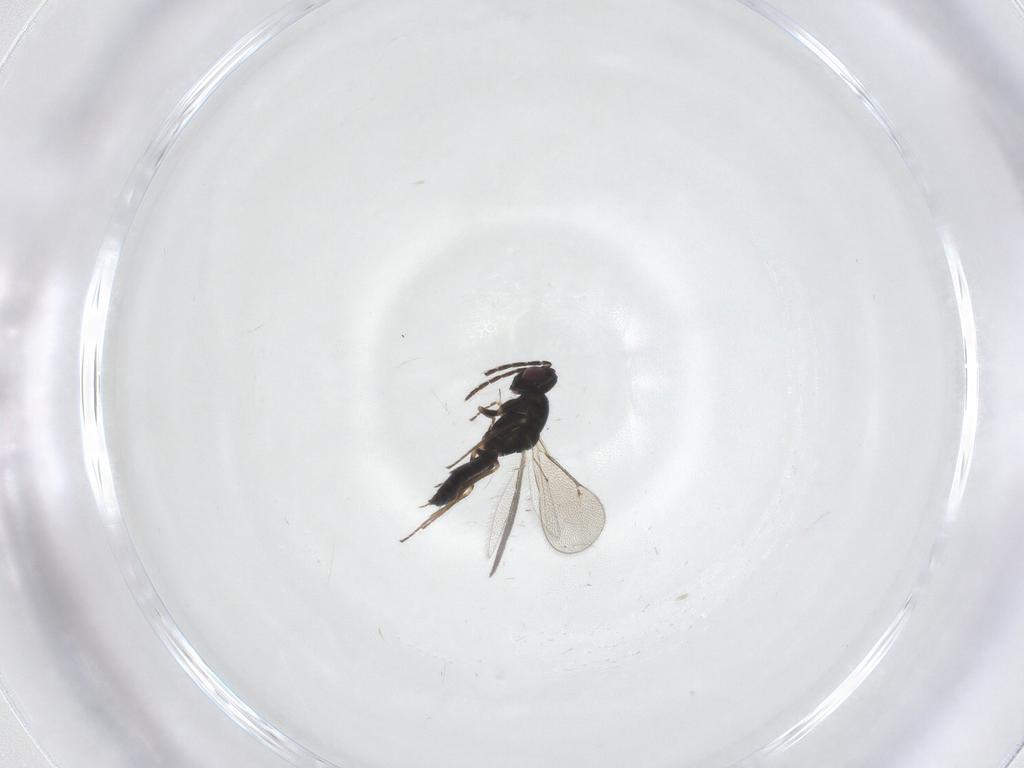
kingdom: Animalia
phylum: Arthropoda
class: Insecta
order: Hymenoptera
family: Eulophidae
